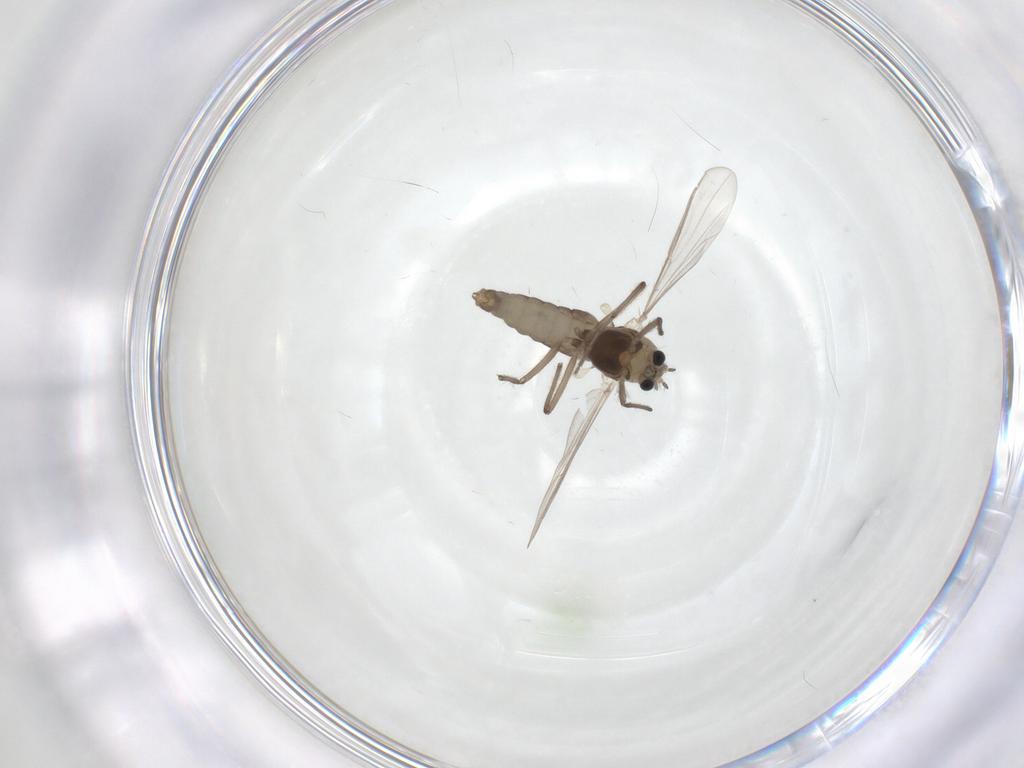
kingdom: Animalia
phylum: Arthropoda
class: Insecta
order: Diptera
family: Chironomidae
